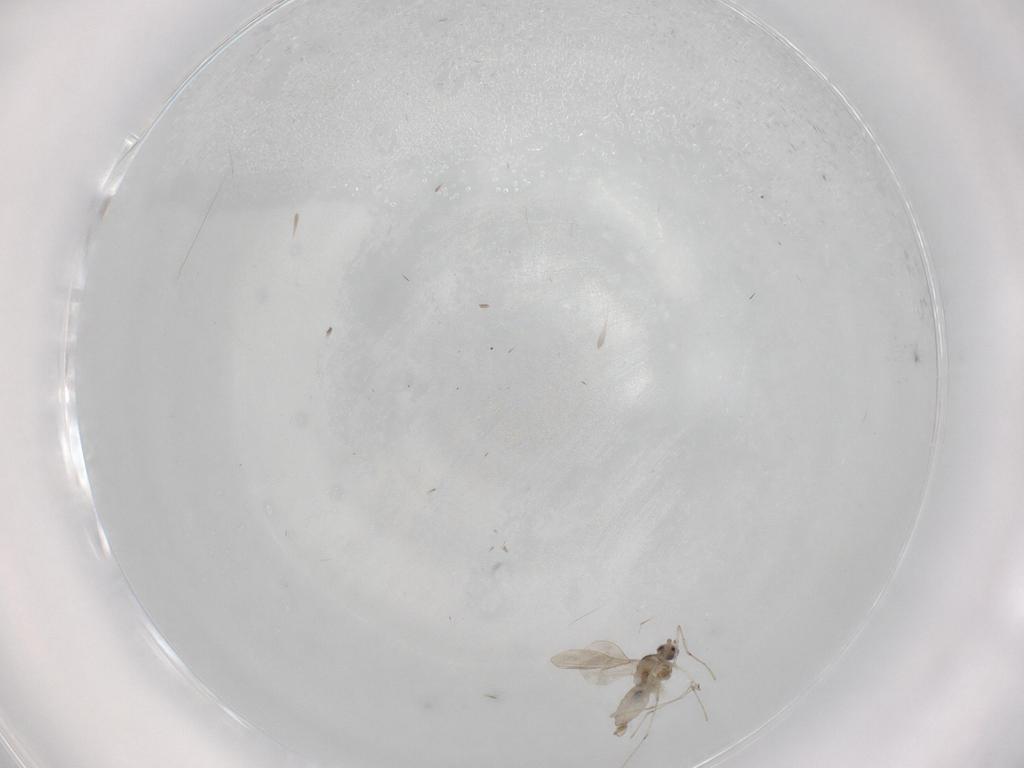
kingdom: Animalia
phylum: Arthropoda
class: Insecta
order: Diptera
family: Cecidomyiidae
